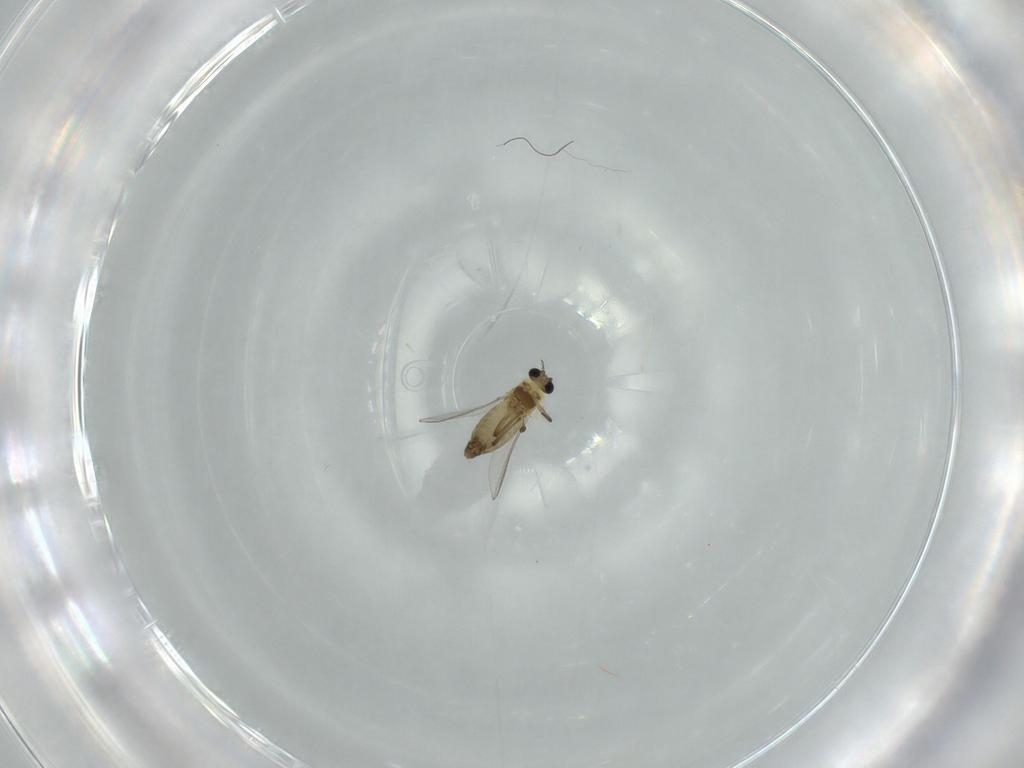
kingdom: Animalia
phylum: Arthropoda
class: Insecta
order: Diptera
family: Chironomidae
